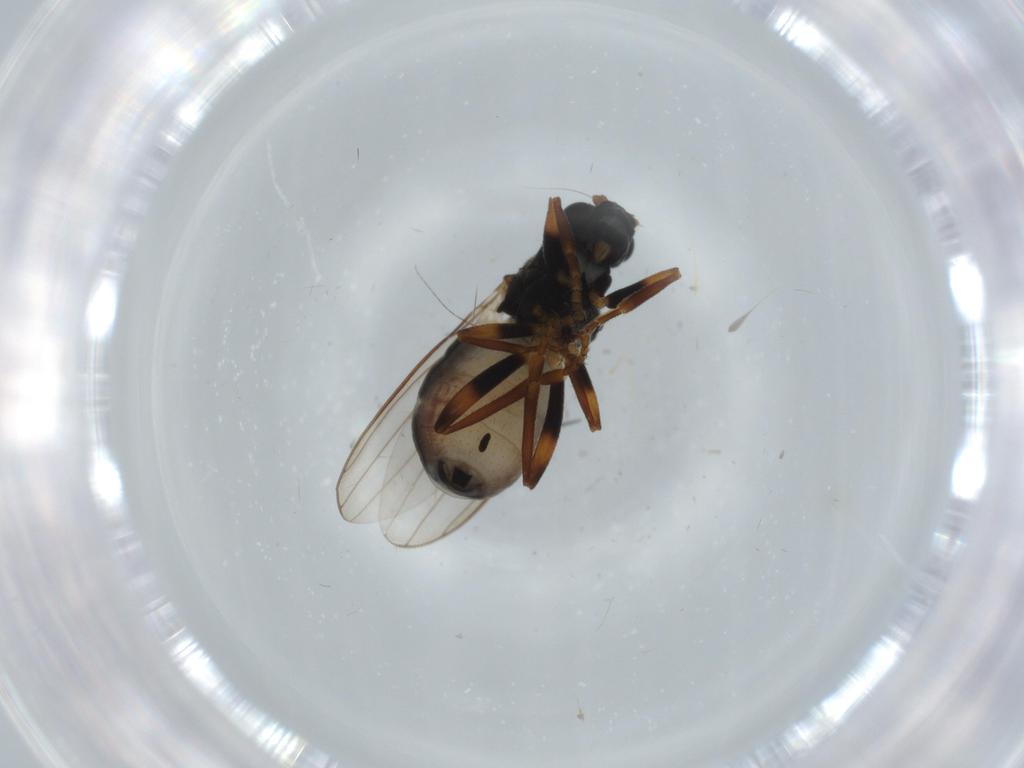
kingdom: Animalia
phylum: Arthropoda
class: Insecta
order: Diptera
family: Sphaeroceridae
